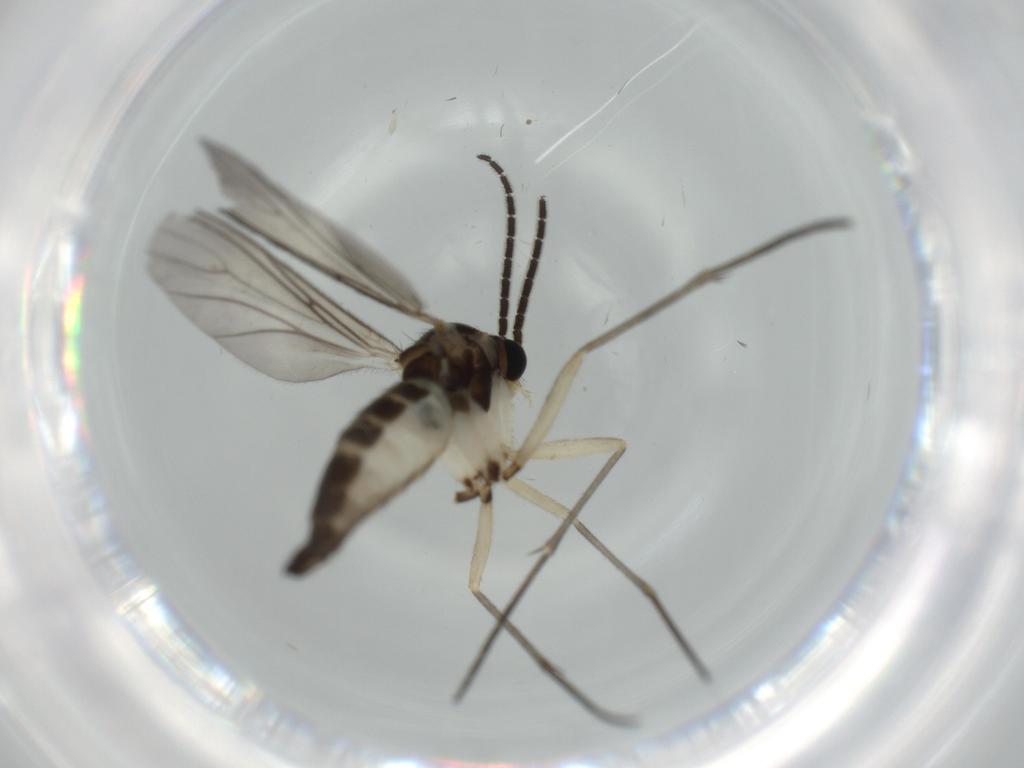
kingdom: Animalia
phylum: Arthropoda
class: Insecta
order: Diptera
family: Sciaridae
